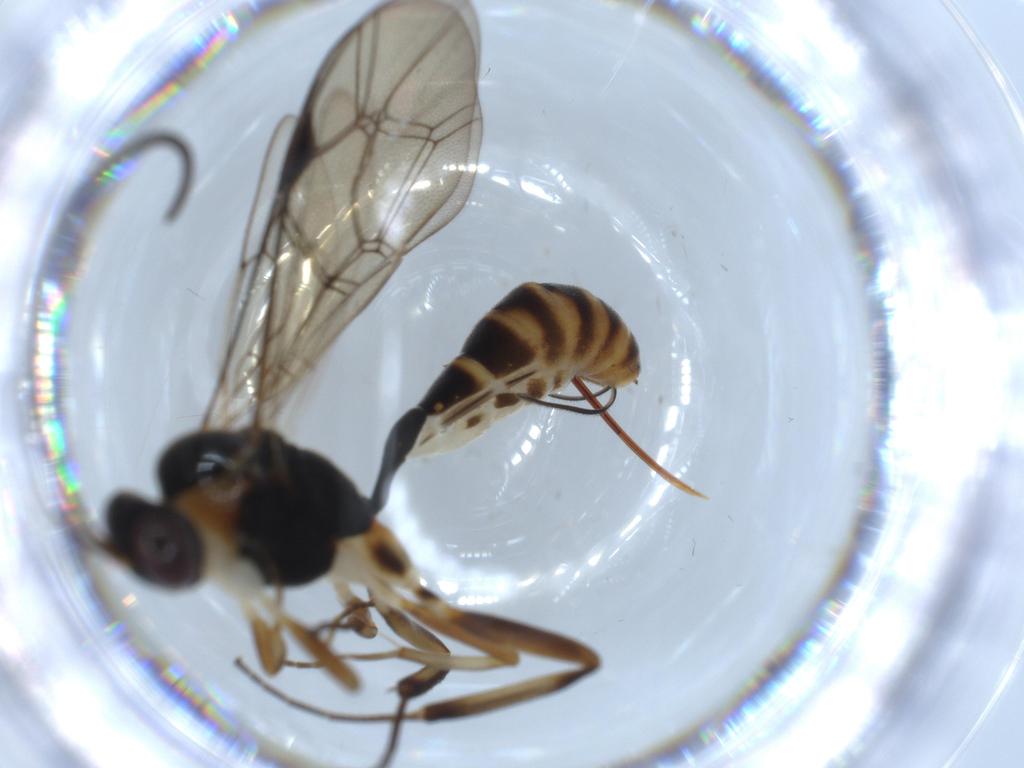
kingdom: Animalia
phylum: Arthropoda
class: Insecta
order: Hymenoptera
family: Ichneumonidae
